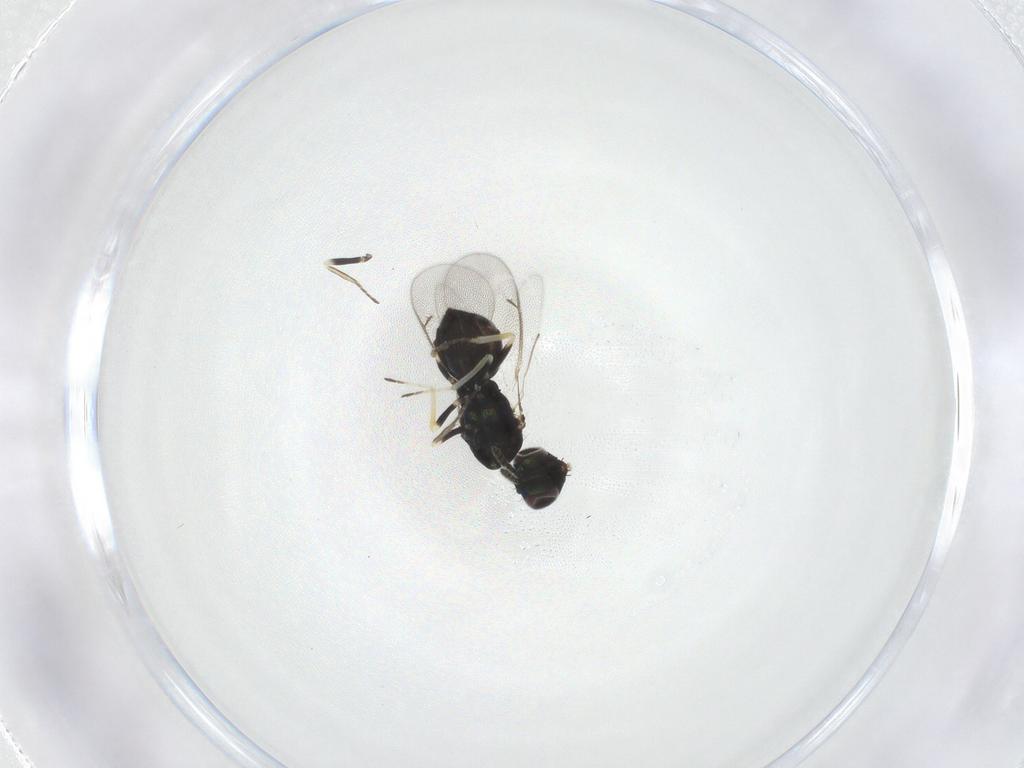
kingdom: Animalia
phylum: Arthropoda
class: Insecta
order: Hymenoptera
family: Eulophidae
